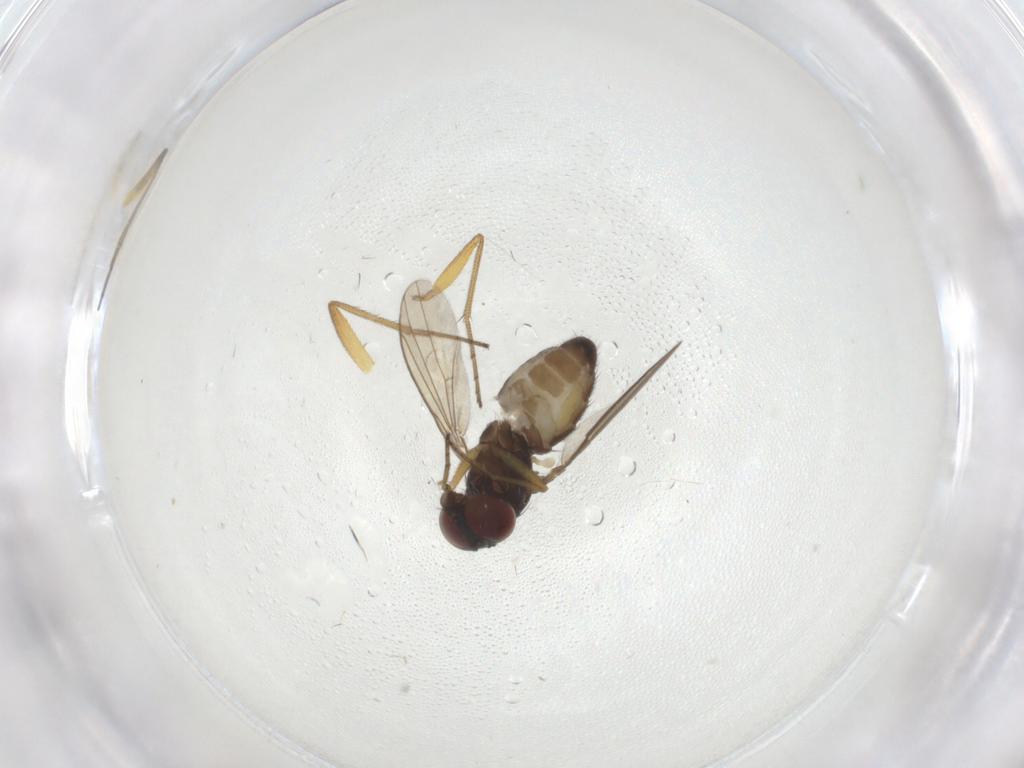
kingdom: Animalia
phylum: Arthropoda
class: Insecta
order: Diptera
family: Dolichopodidae
